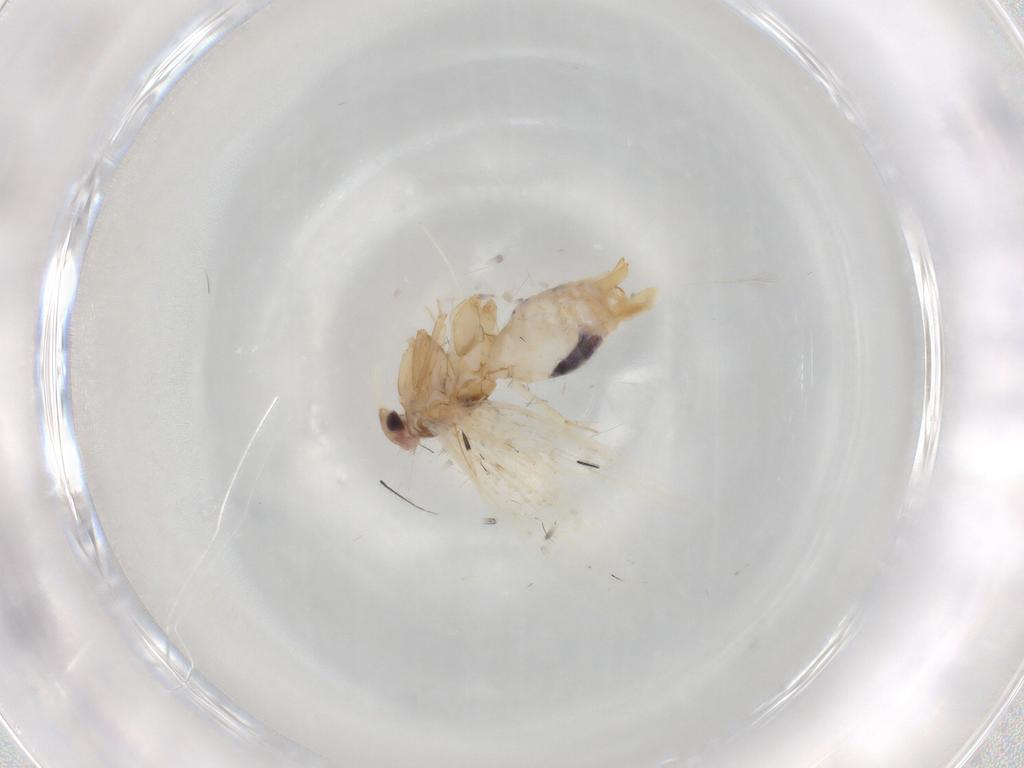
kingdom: Animalia
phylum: Arthropoda
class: Insecta
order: Lepidoptera
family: Bucculatricidae
